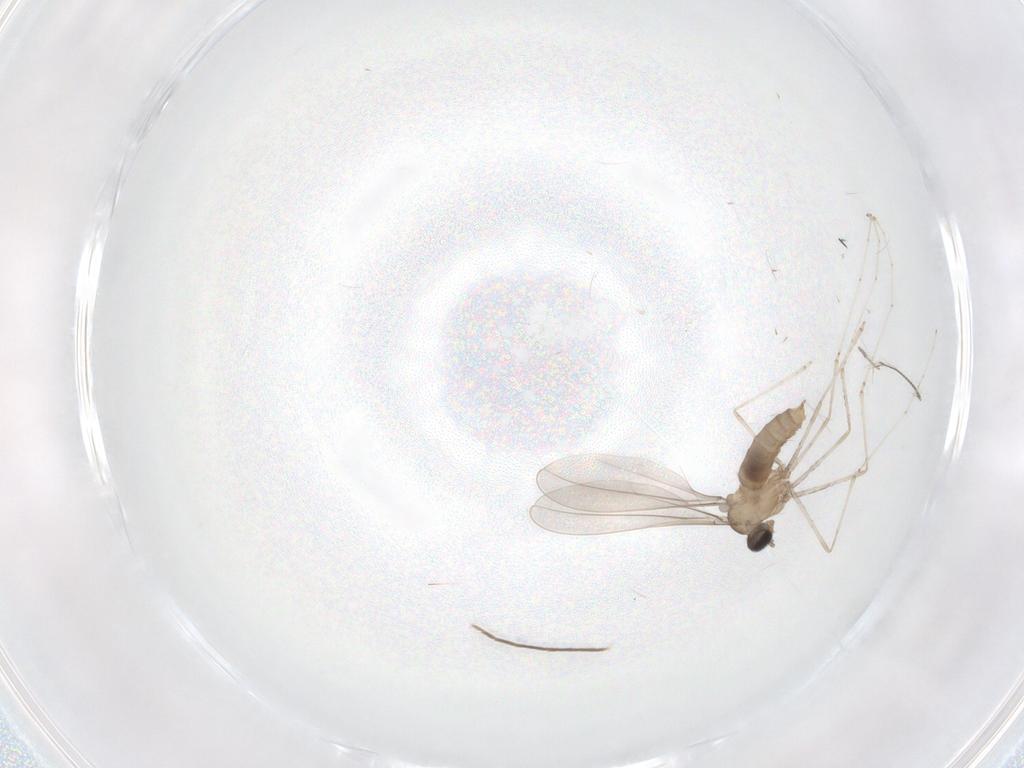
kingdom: Animalia
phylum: Arthropoda
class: Insecta
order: Diptera
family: Cecidomyiidae
